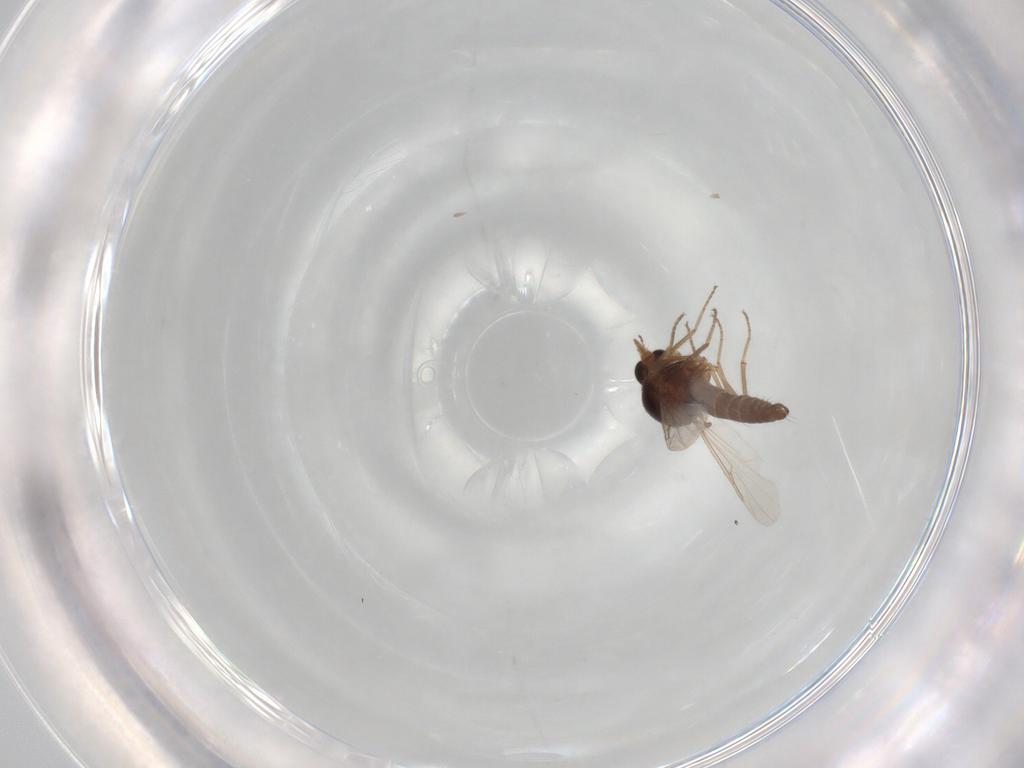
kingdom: Animalia
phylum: Arthropoda
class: Insecta
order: Diptera
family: Ceratopogonidae
